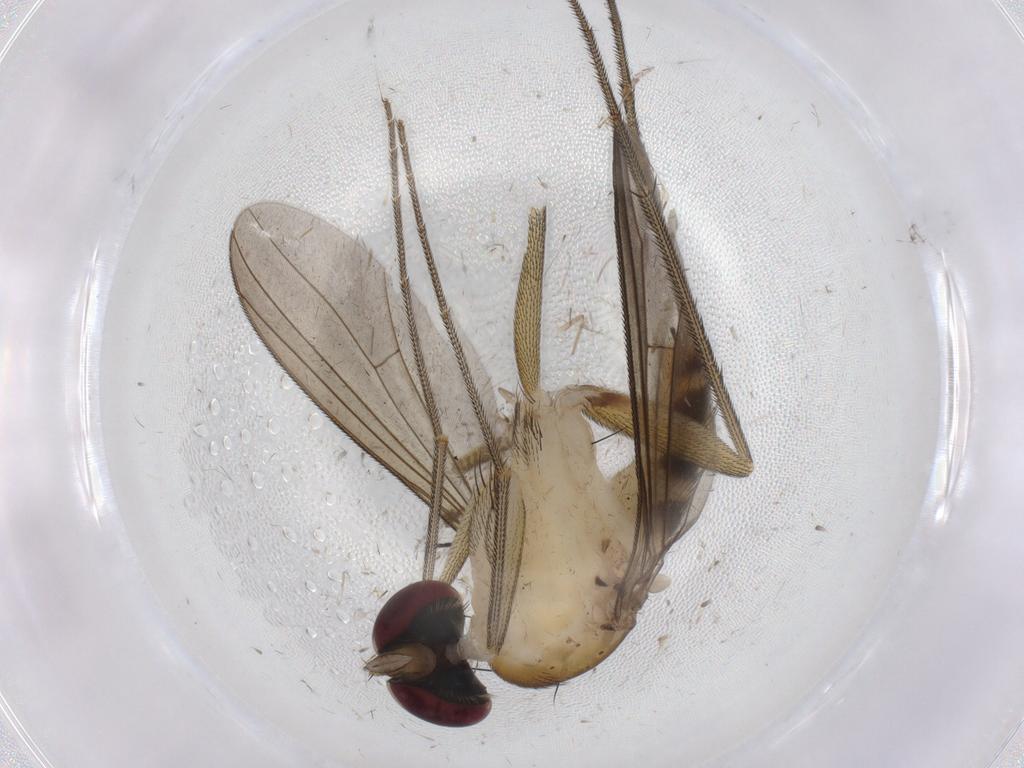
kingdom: Animalia
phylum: Arthropoda
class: Insecta
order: Diptera
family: Dolichopodidae
